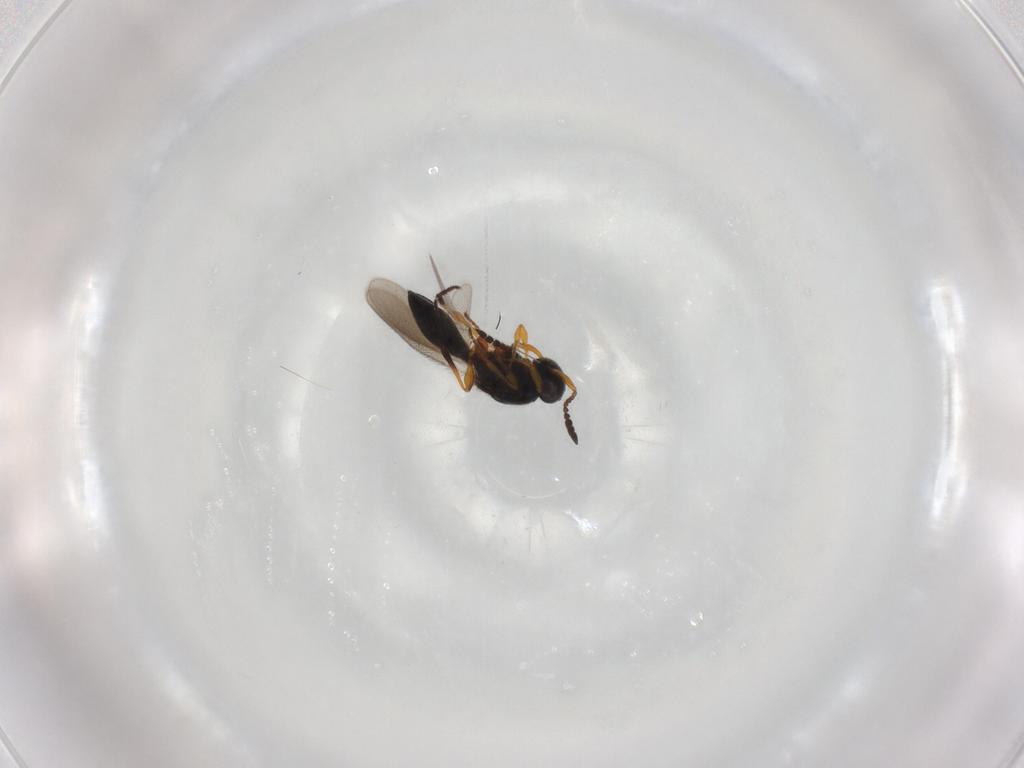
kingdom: Animalia
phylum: Arthropoda
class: Insecta
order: Hymenoptera
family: Platygastridae
